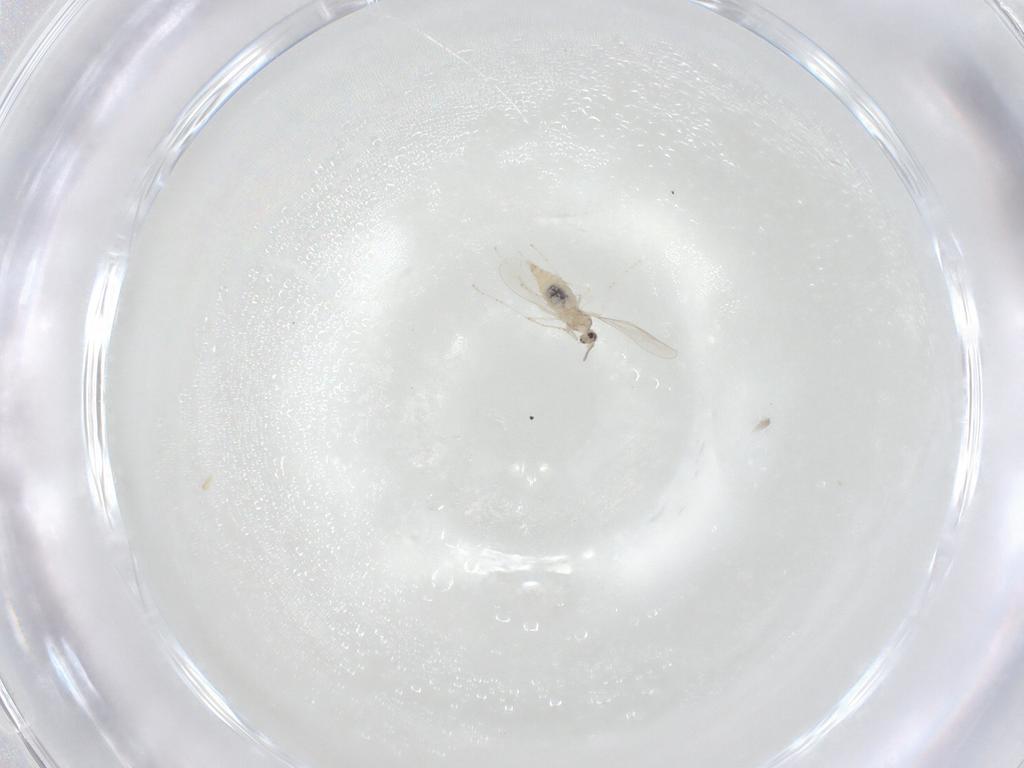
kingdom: Animalia
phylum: Arthropoda
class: Insecta
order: Diptera
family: Cecidomyiidae
